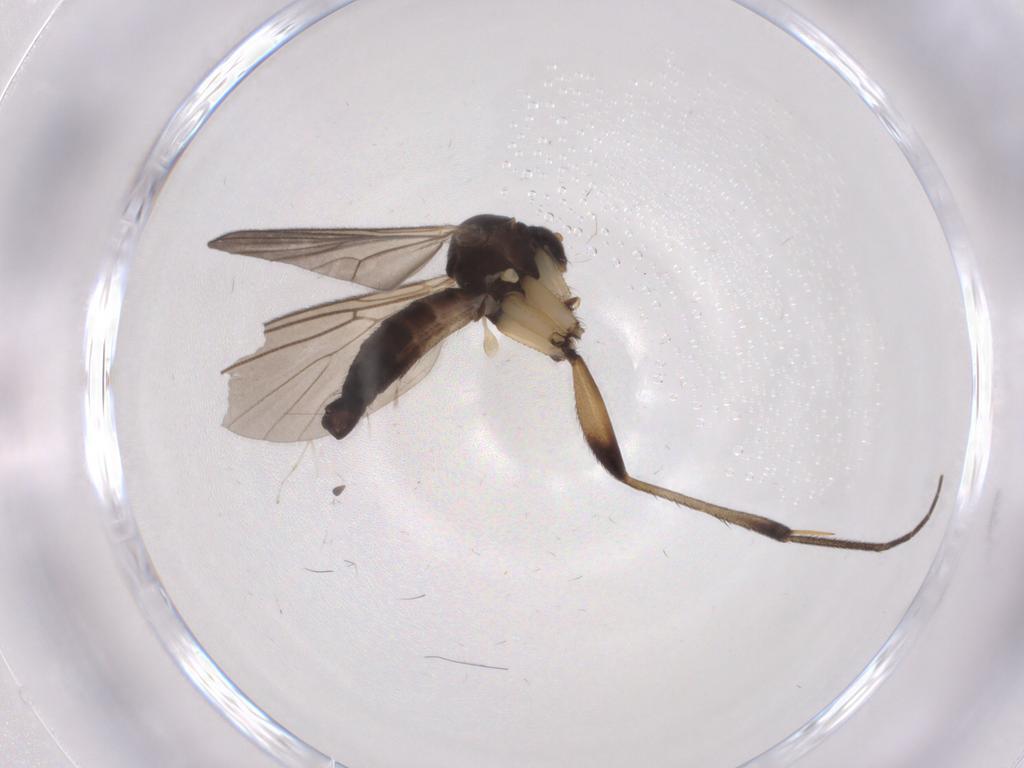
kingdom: Animalia
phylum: Arthropoda
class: Insecta
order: Diptera
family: Mycetophilidae
